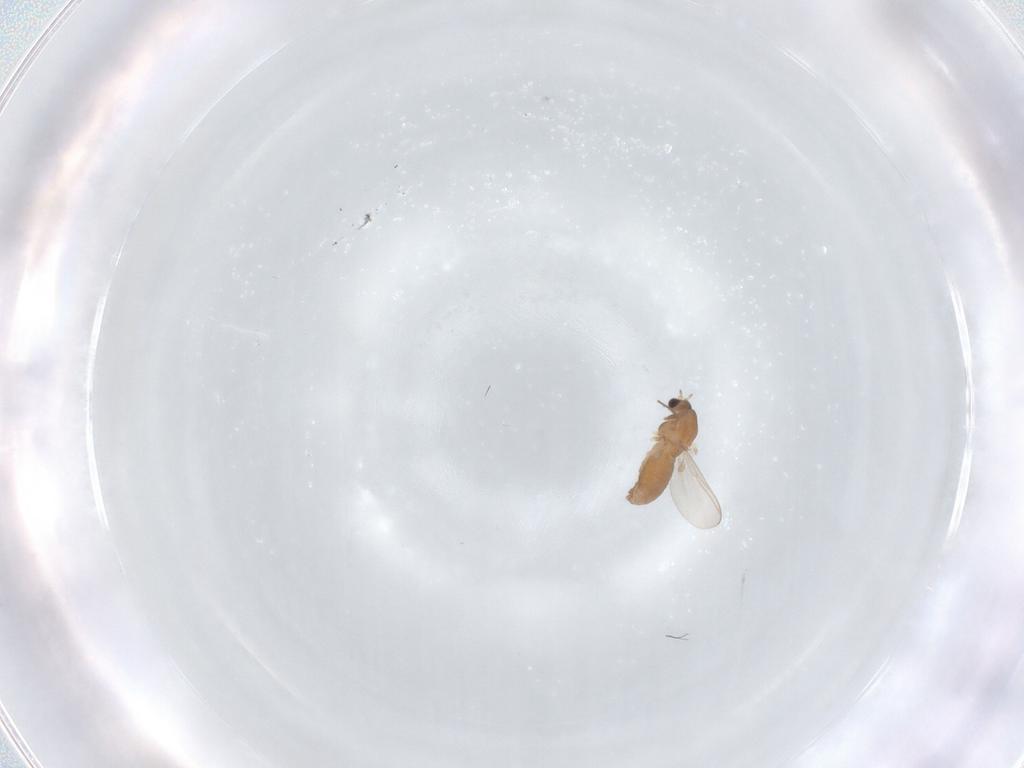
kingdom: Animalia
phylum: Arthropoda
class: Insecta
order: Diptera
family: Chironomidae
